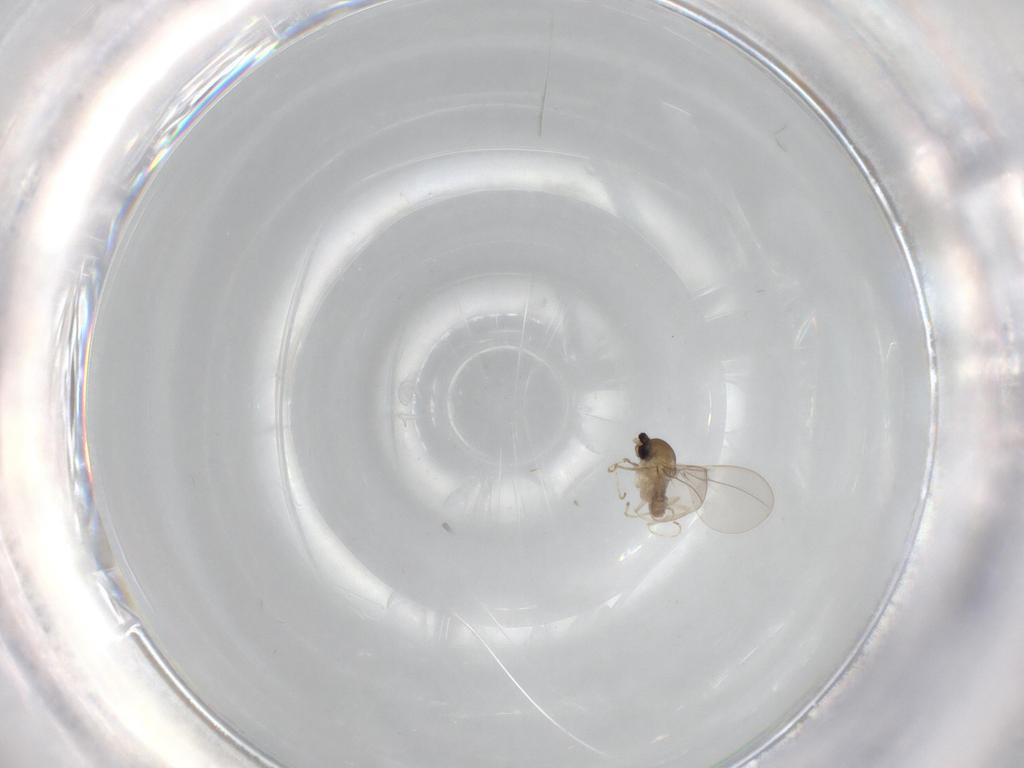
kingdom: Animalia
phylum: Arthropoda
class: Insecta
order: Diptera
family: Cecidomyiidae
